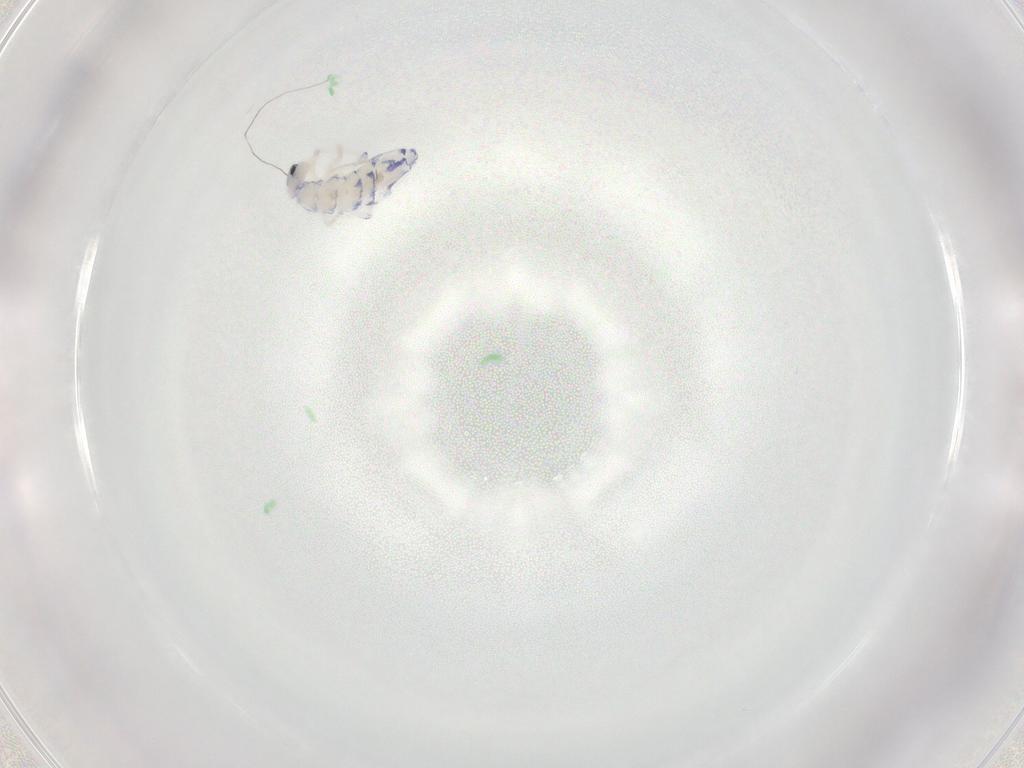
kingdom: Animalia
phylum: Arthropoda
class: Collembola
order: Entomobryomorpha
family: Entomobryidae
